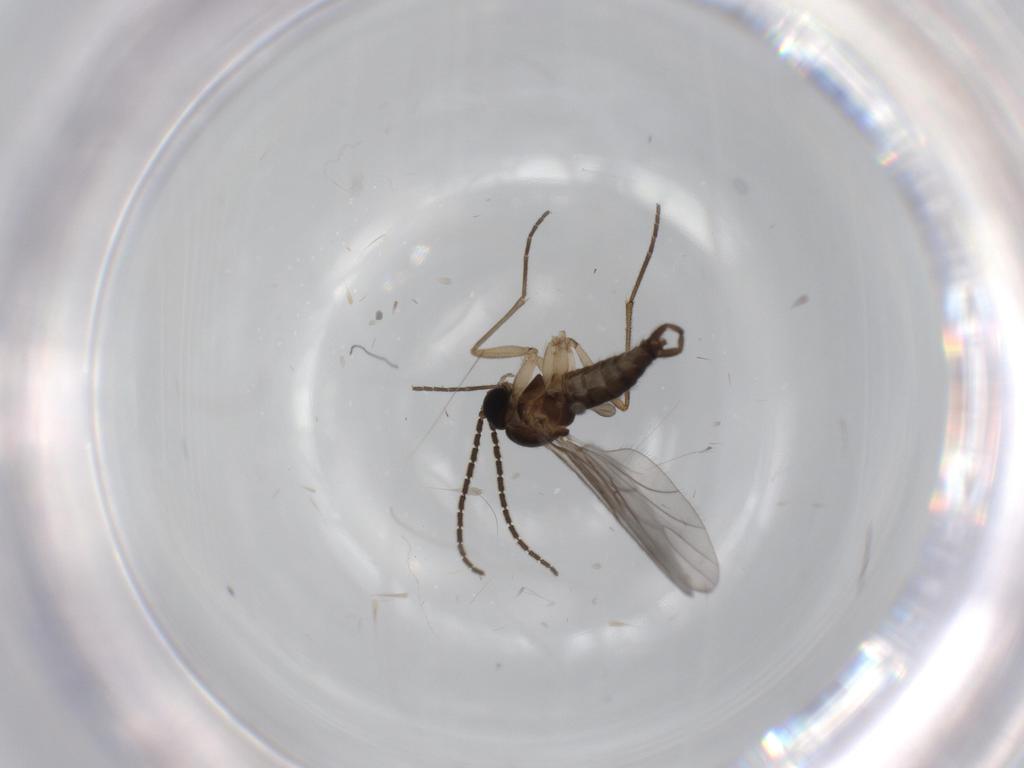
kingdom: Animalia
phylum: Arthropoda
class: Insecta
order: Diptera
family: Sciaridae
